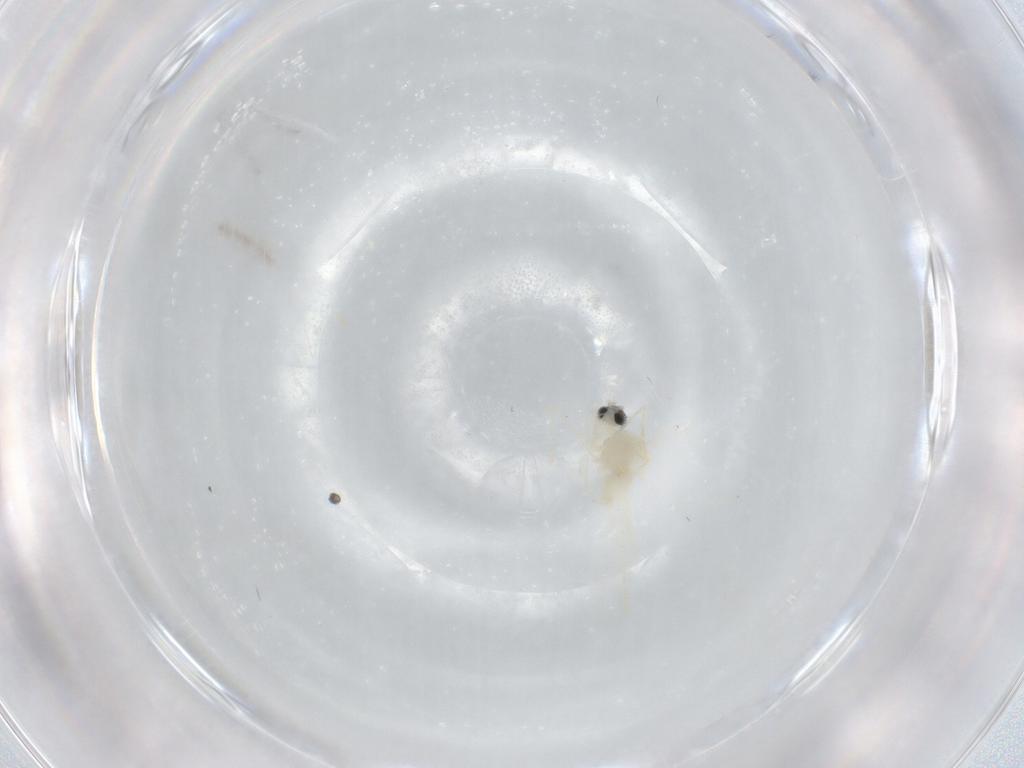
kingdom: Animalia
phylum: Arthropoda
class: Insecta
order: Diptera
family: Cecidomyiidae
